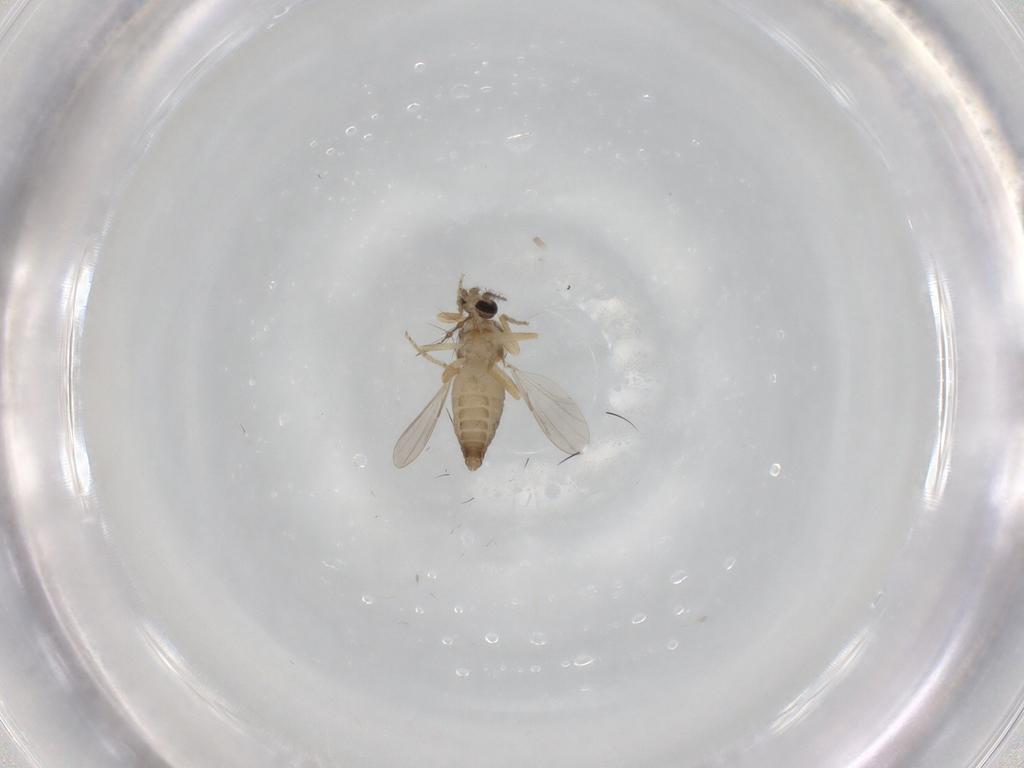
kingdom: Animalia
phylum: Arthropoda
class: Insecta
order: Diptera
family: Ceratopogonidae
